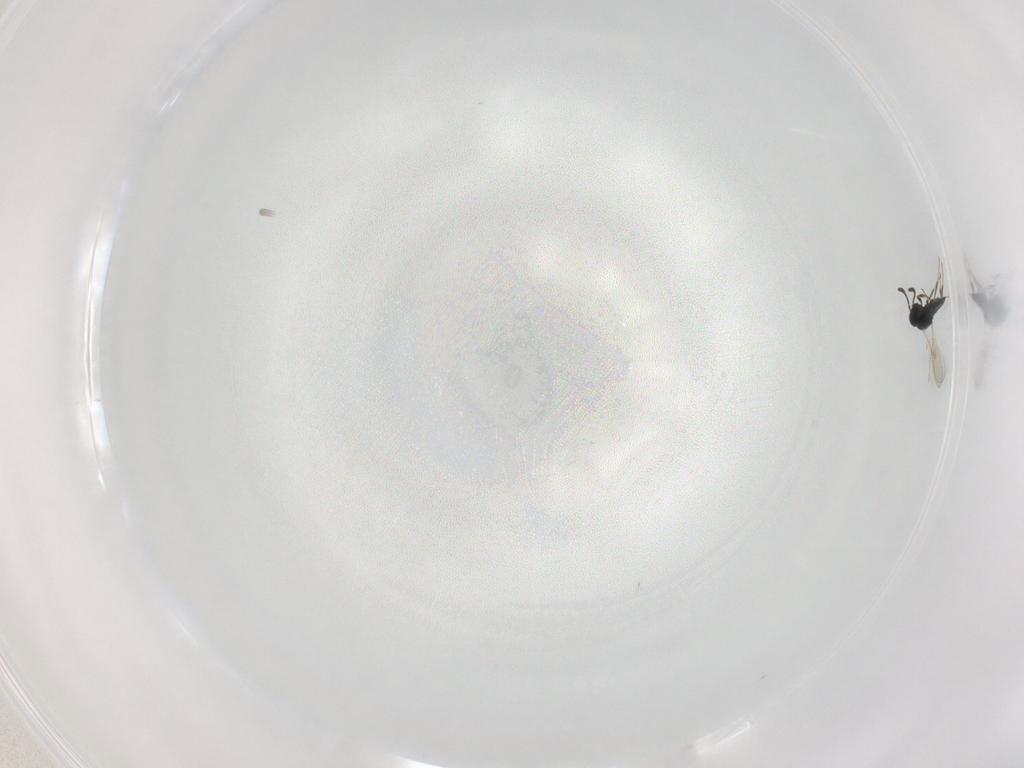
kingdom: Animalia
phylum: Arthropoda
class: Insecta
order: Hymenoptera
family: Scelionidae
